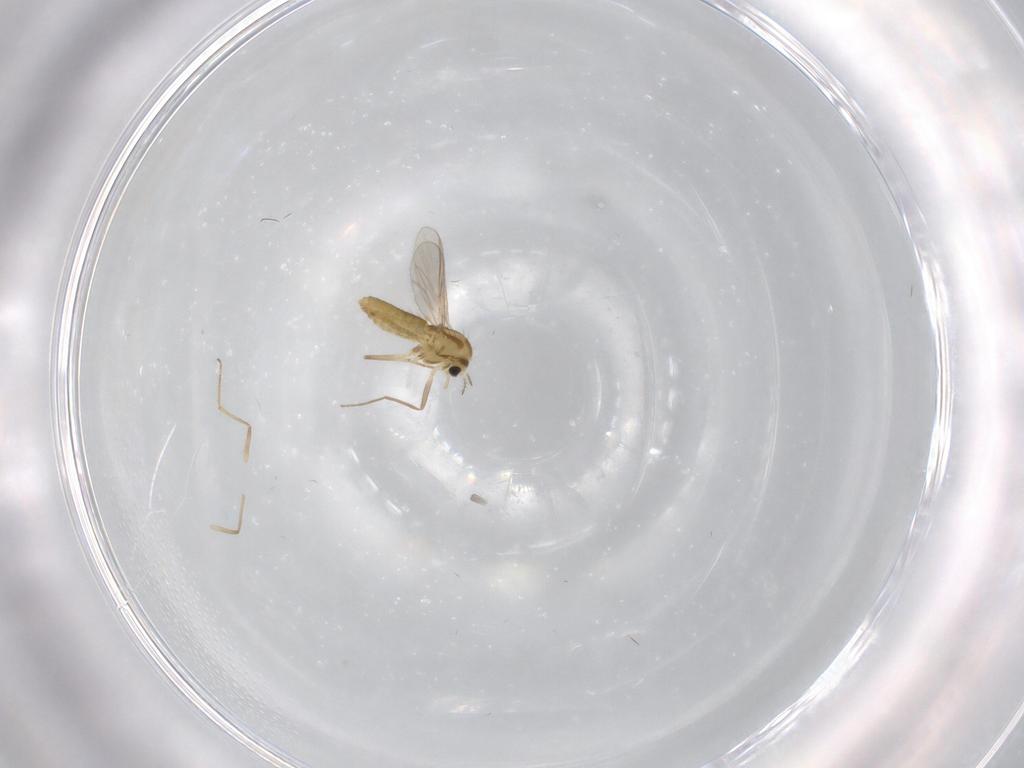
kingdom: Animalia
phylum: Arthropoda
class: Insecta
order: Diptera
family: Chironomidae
